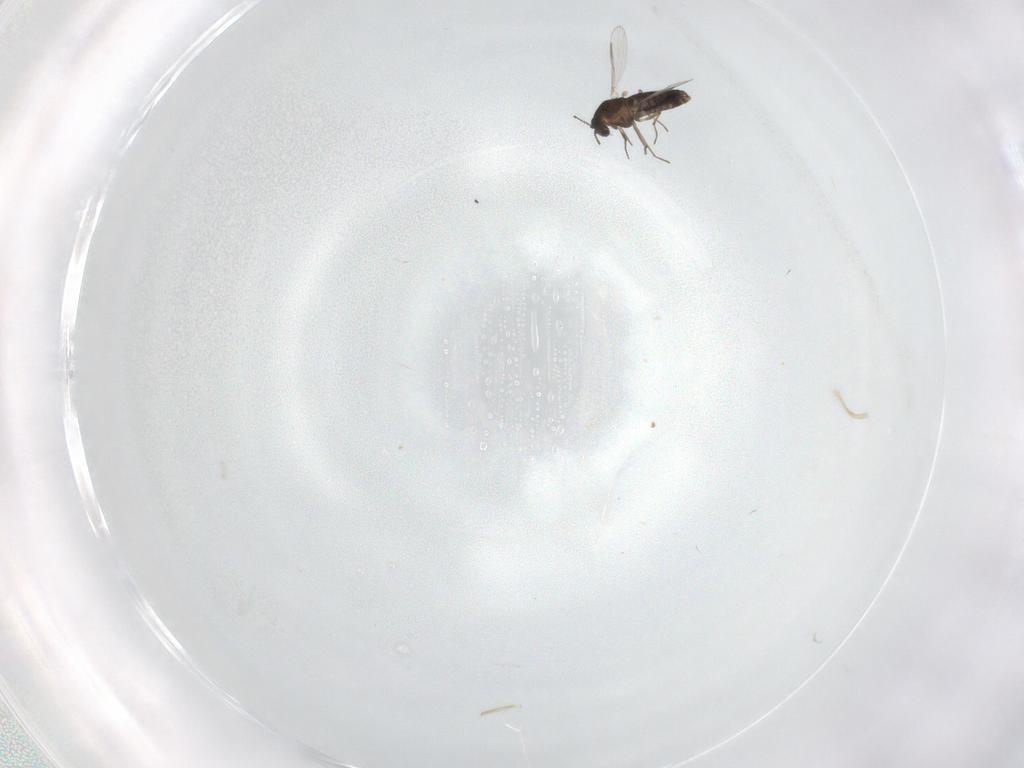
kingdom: Animalia
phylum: Arthropoda
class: Insecta
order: Diptera
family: Chironomidae
